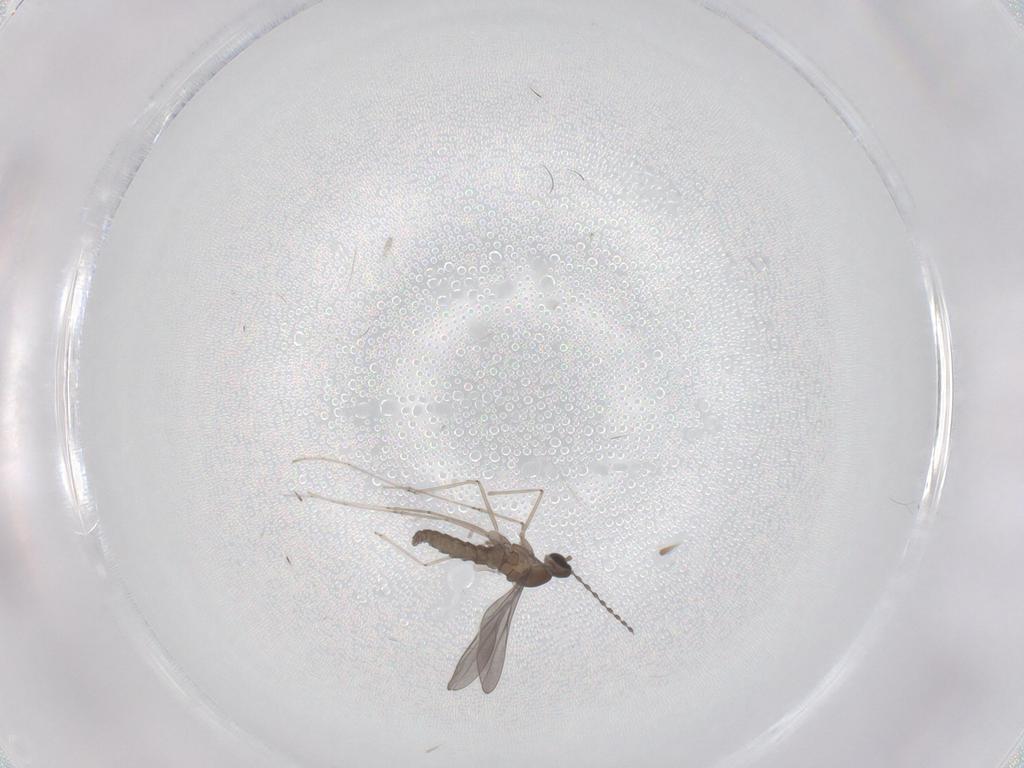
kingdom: Animalia
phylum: Arthropoda
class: Insecta
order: Diptera
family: Cecidomyiidae
